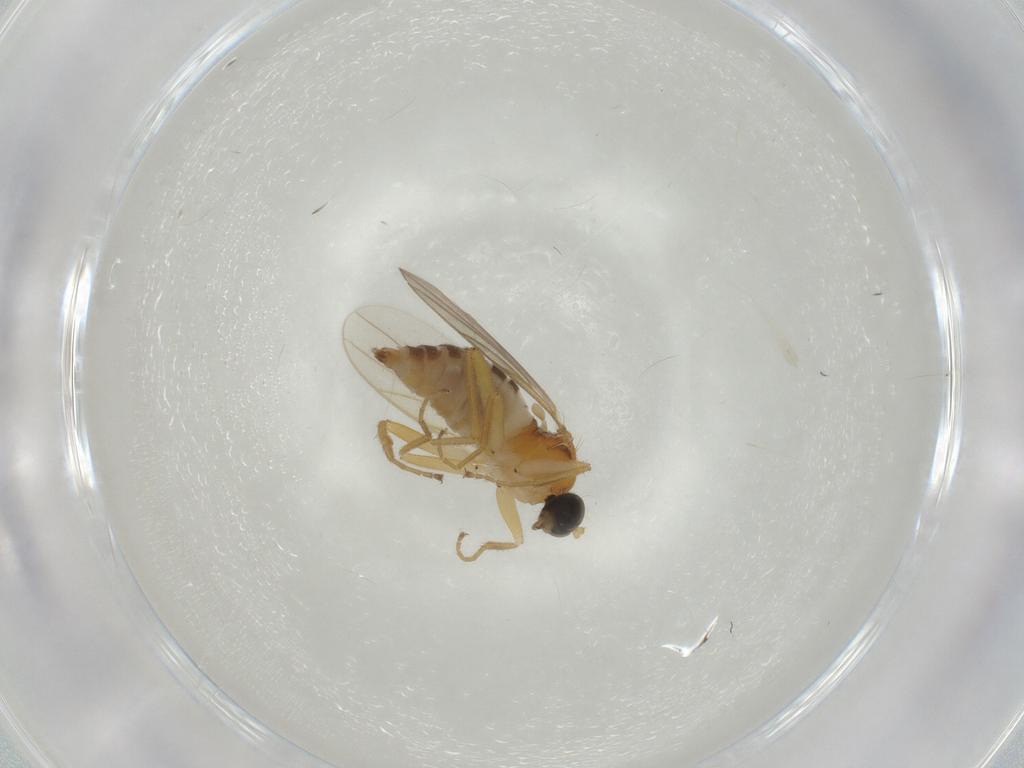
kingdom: Animalia
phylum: Arthropoda
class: Insecta
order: Diptera
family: Hybotidae
